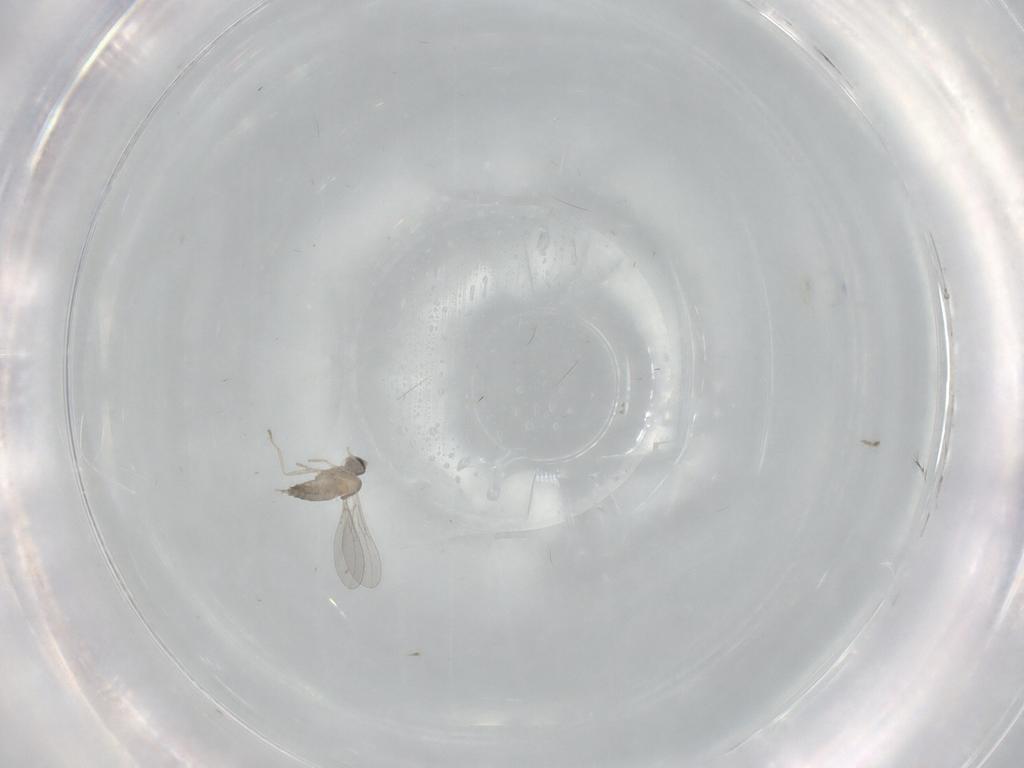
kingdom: Animalia
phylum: Arthropoda
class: Insecta
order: Diptera
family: Cecidomyiidae
